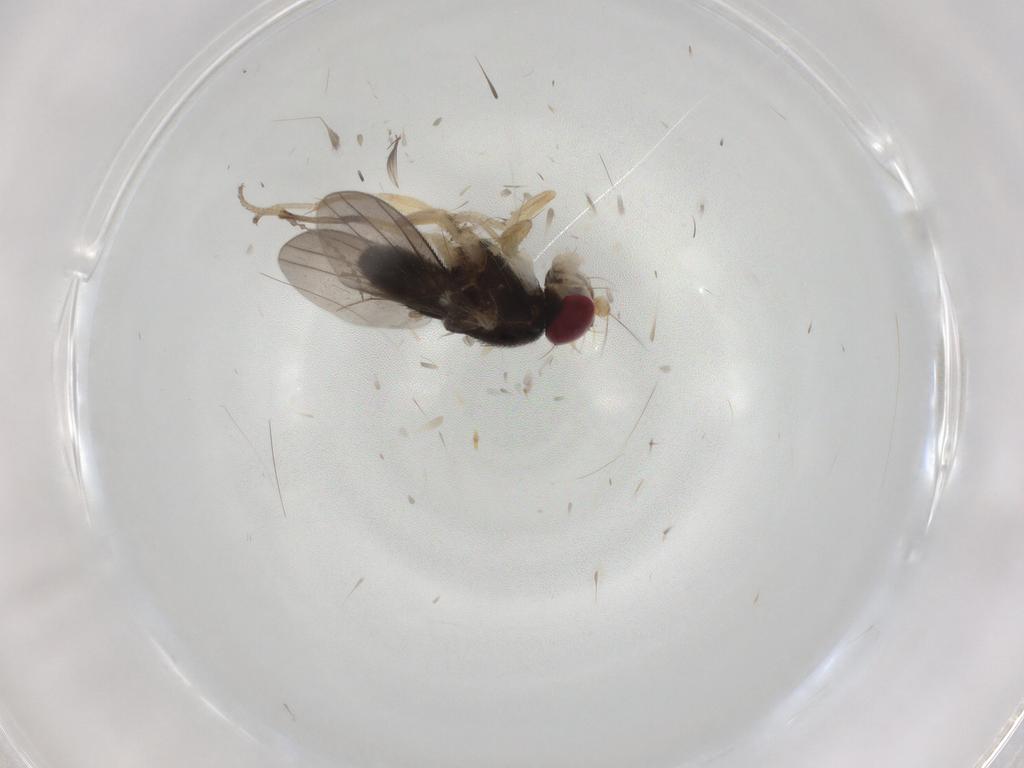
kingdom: Animalia
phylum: Arthropoda
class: Insecta
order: Diptera
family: Clusiidae
